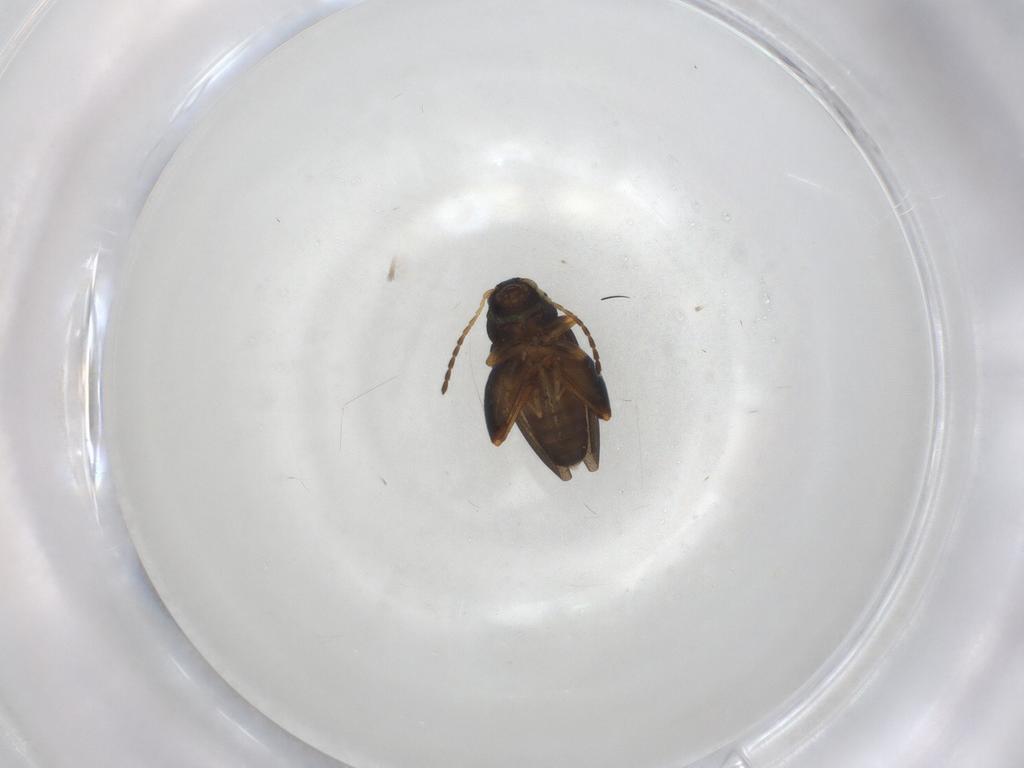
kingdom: Animalia
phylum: Arthropoda
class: Insecta
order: Coleoptera
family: Chrysomelidae
